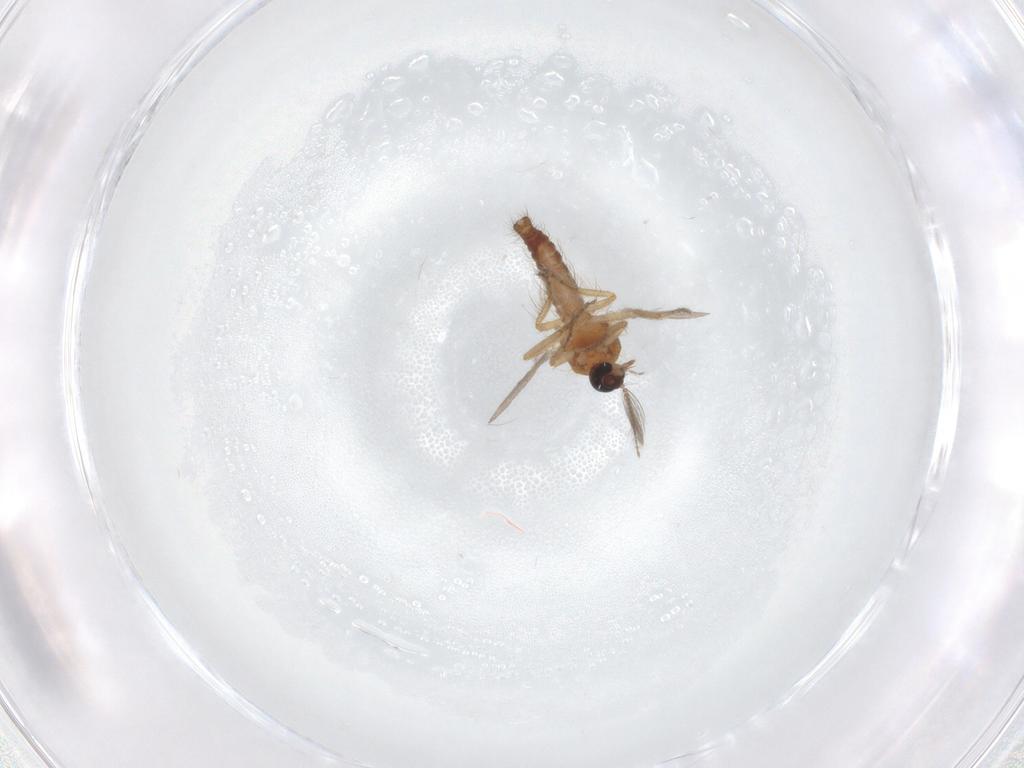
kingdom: Animalia
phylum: Arthropoda
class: Insecta
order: Diptera
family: Ceratopogonidae
